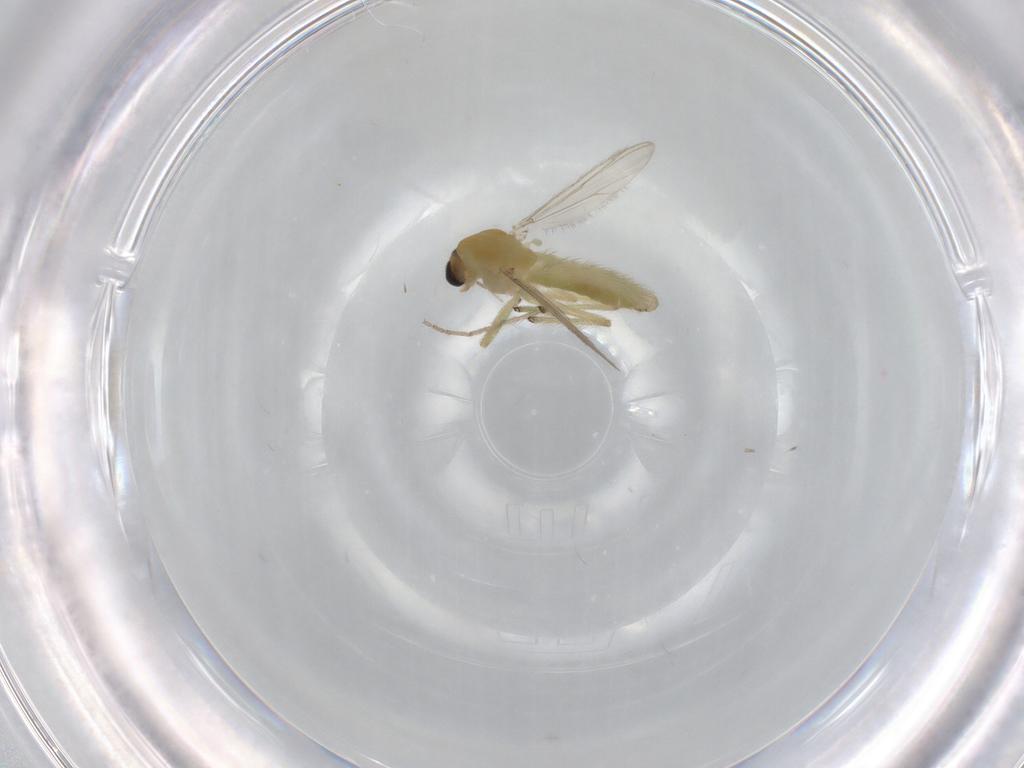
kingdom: Animalia
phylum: Arthropoda
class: Insecta
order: Diptera
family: Chironomidae
